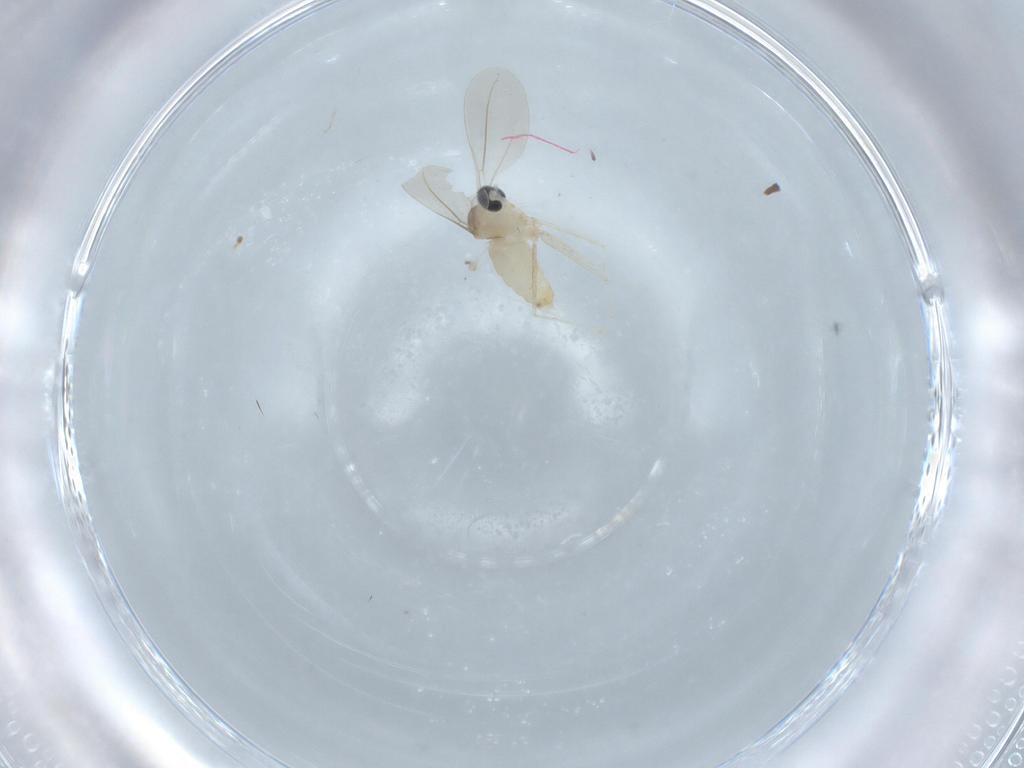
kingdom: Animalia
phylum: Arthropoda
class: Insecta
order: Diptera
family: Cecidomyiidae
